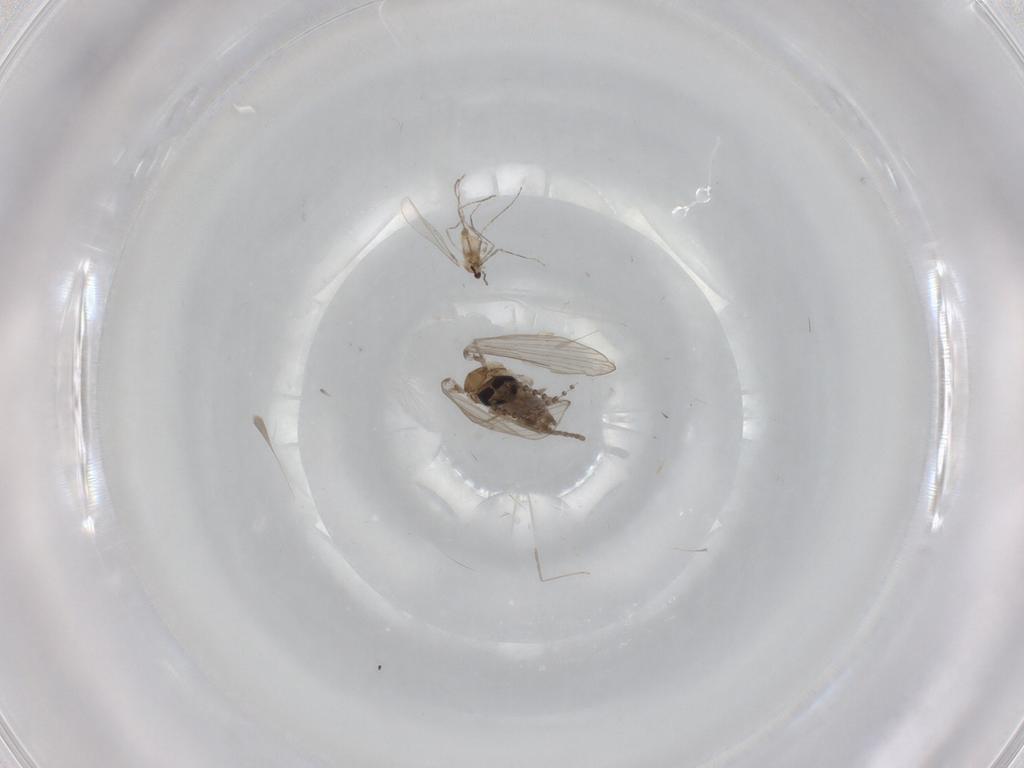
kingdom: Animalia
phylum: Arthropoda
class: Insecta
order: Diptera
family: Psychodidae
